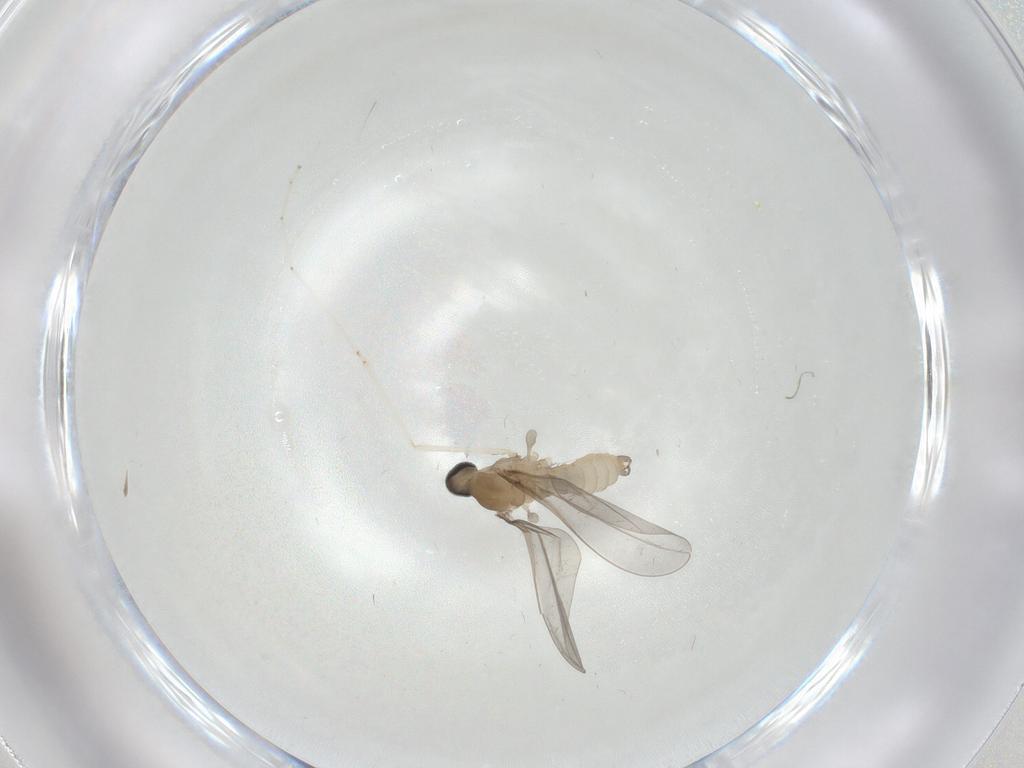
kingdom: Animalia
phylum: Arthropoda
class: Insecta
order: Diptera
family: Cecidomyiidae
